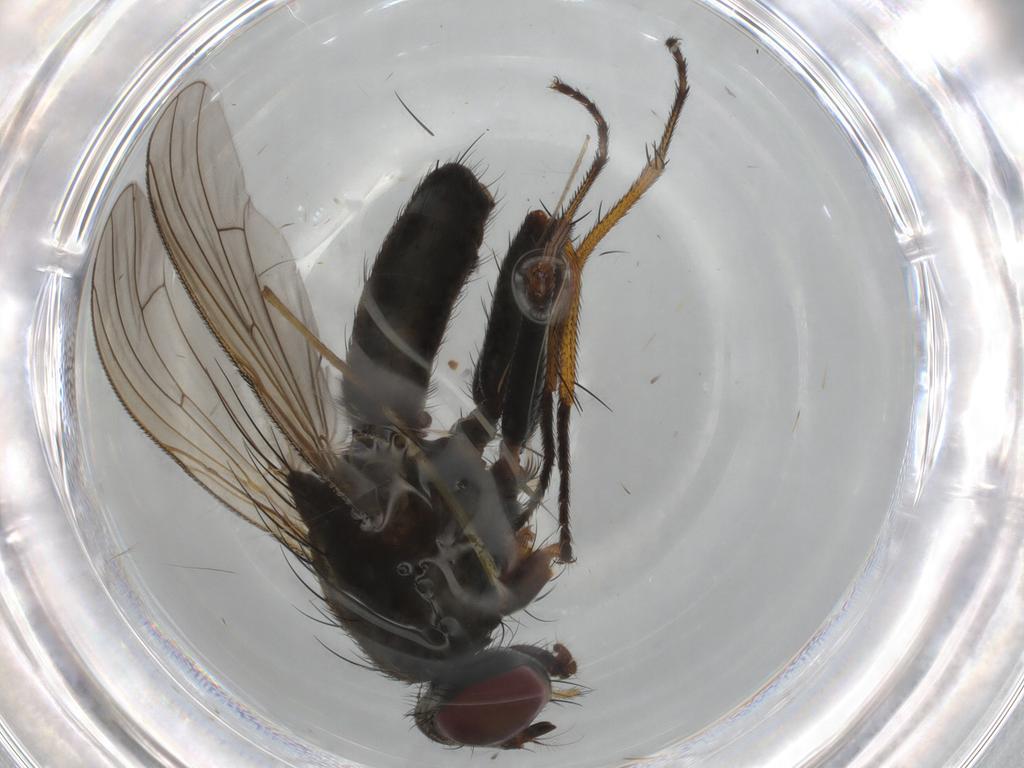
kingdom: Animalia
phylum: Arthropoda
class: Insecta
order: Diptera
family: Muscidae
